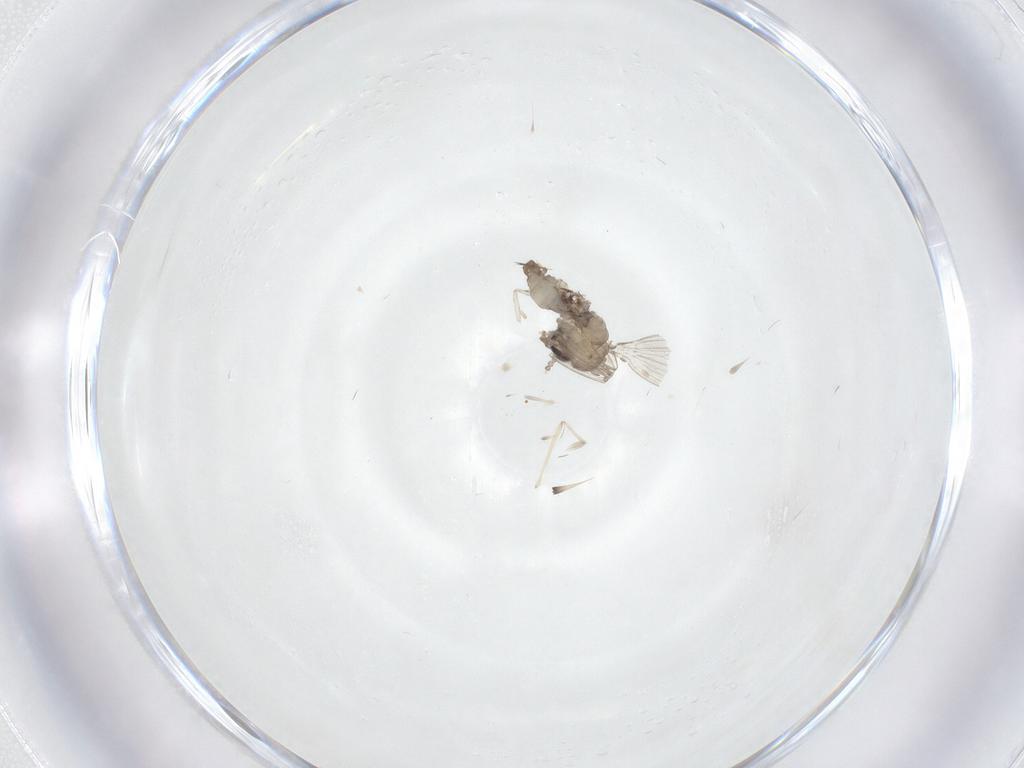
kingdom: Animalia
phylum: Arthropoda
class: Insecta
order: Diptera
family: Psychodidae
